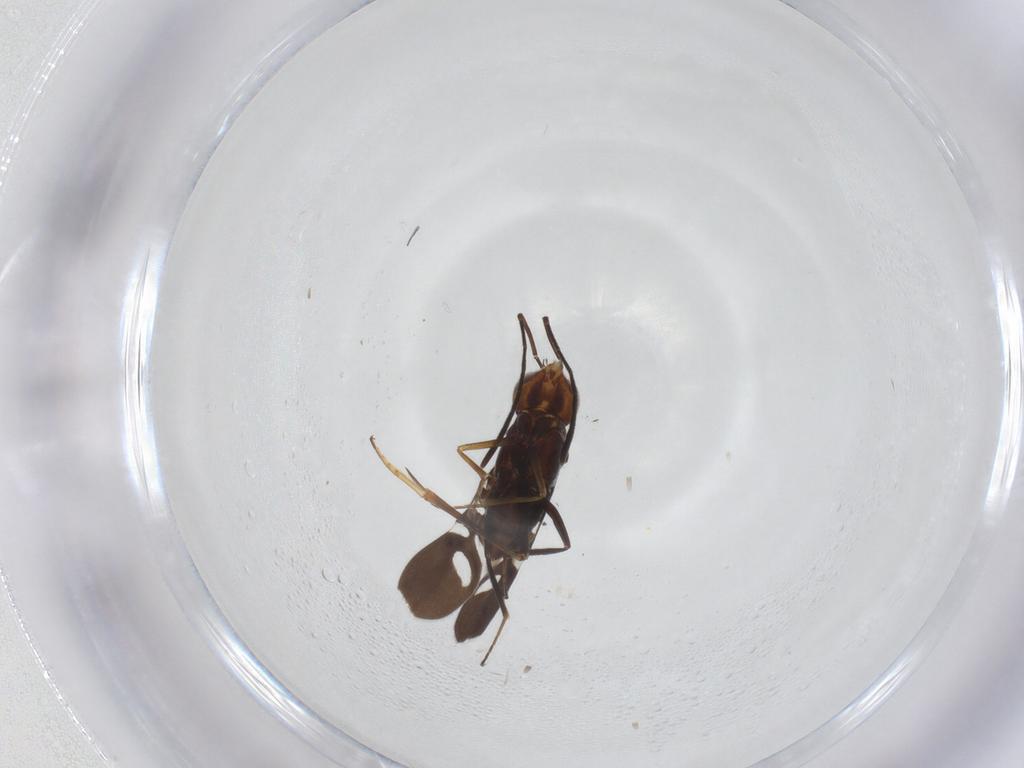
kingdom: Animalia
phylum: Arthropoda
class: Insecta
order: Hymenoptera
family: Encyrtidae
